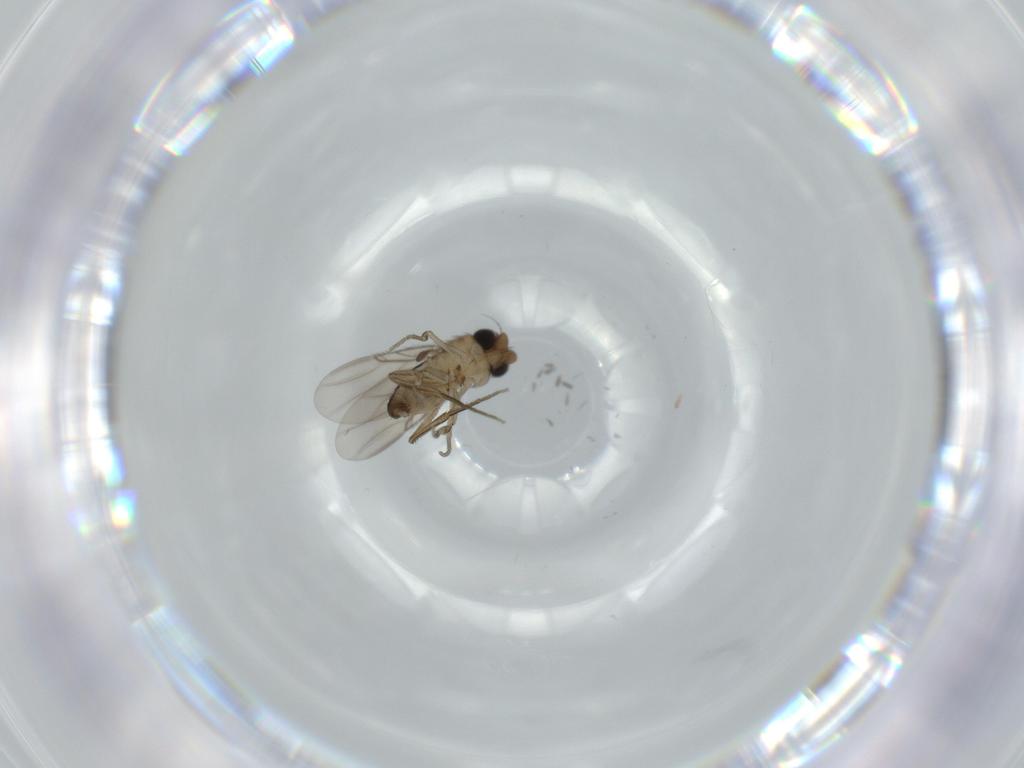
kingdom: Animalia
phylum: Arthropoda
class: Insecta
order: Diptera
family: Phoridae
